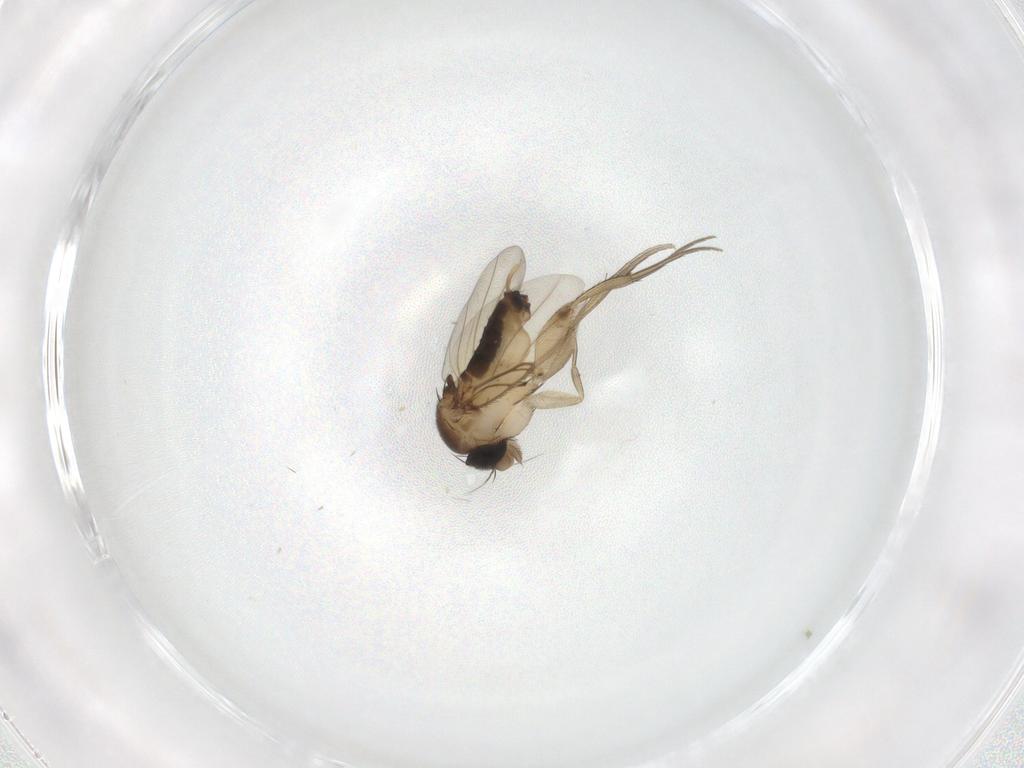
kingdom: Animalia
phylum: Arthropoda
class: Insecta
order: Diptera
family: Phoridae
